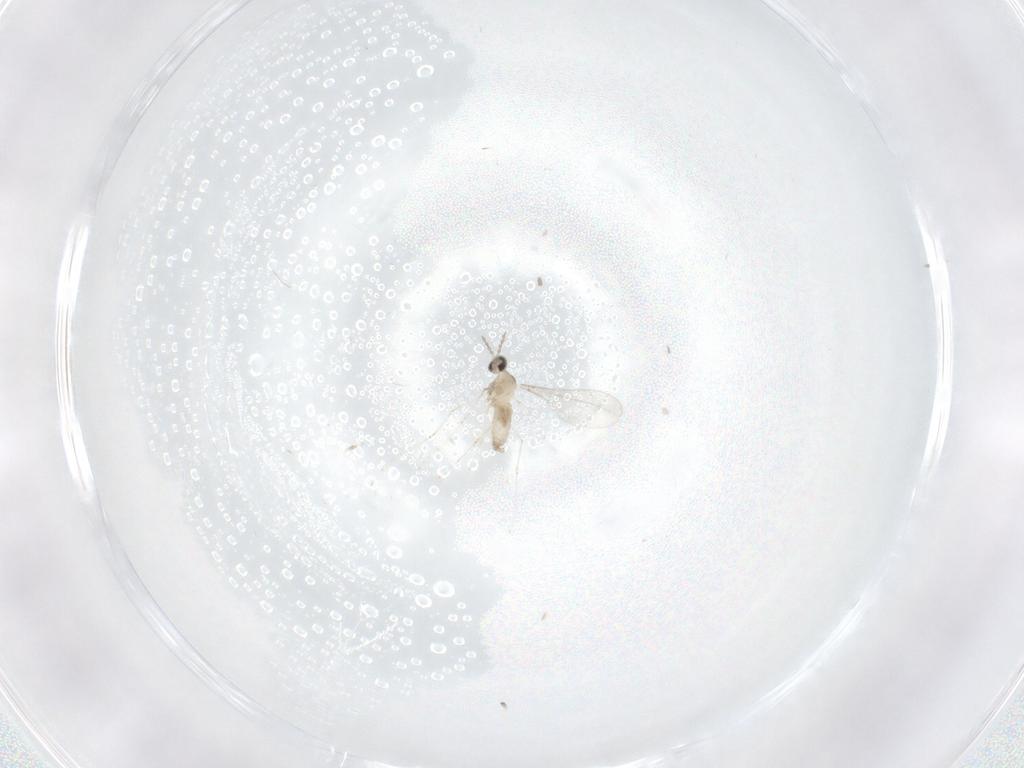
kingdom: Animalia
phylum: Arthropoda
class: Insecta
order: Diptera
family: Cecidomyiidae
